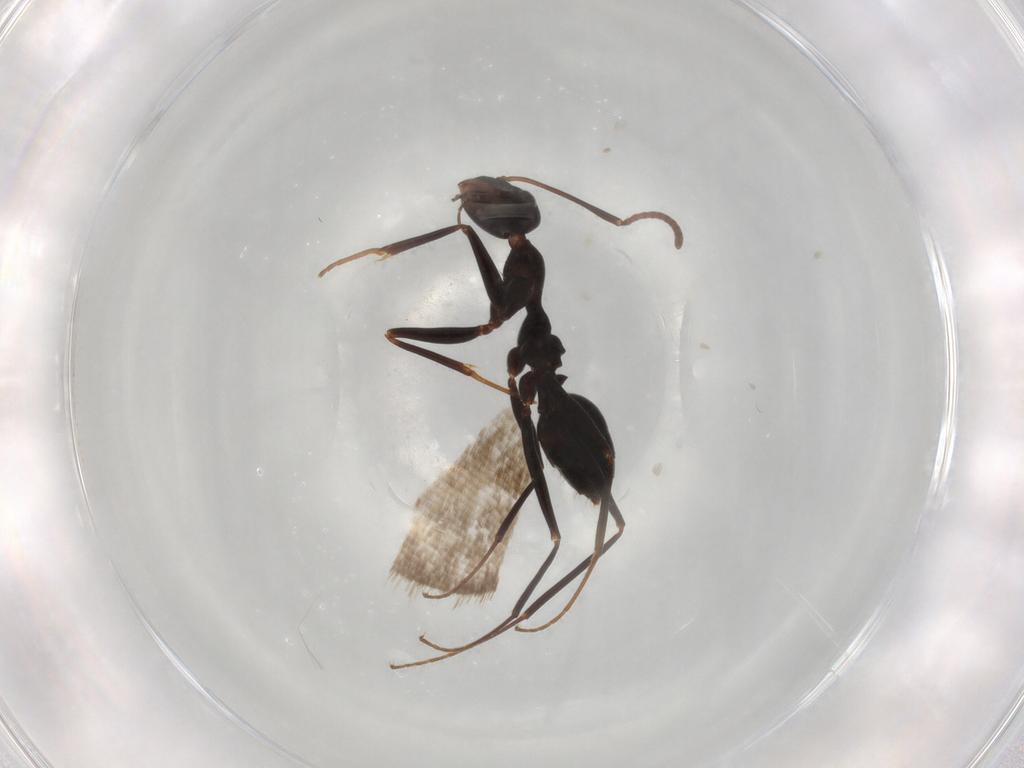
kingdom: Animalia
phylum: Arthropoda
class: Insecta
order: Hymenoptera
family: Formicidae
